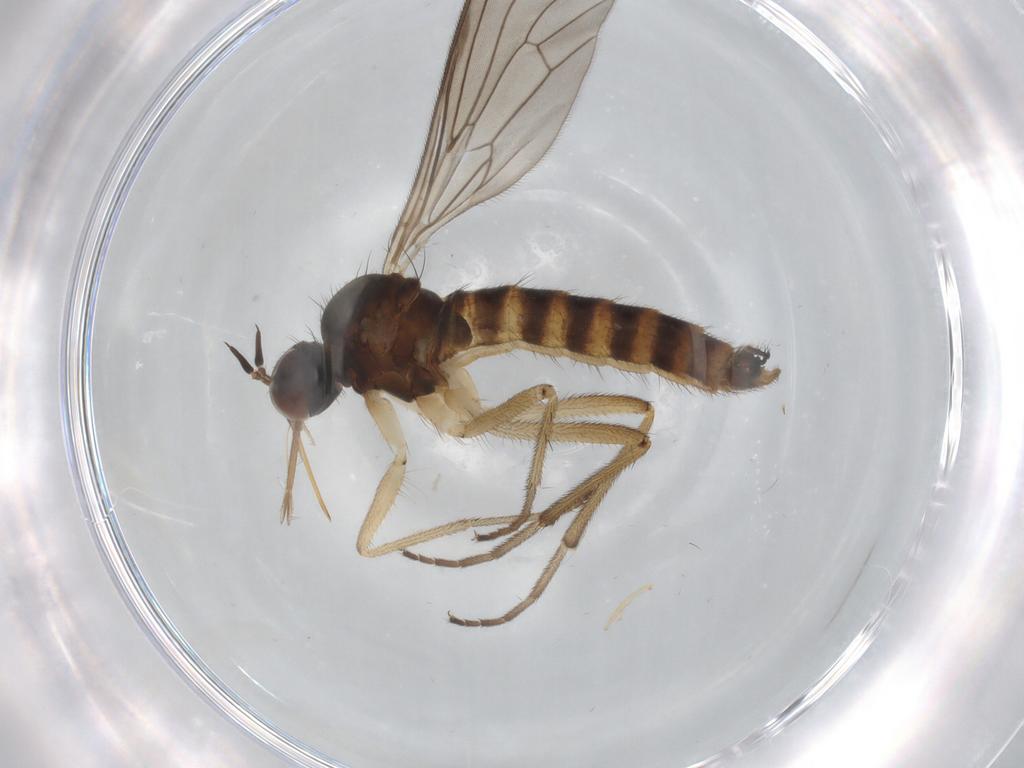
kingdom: Animalia
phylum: Arthropoda
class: Insecta
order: Diptera
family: Empididae
